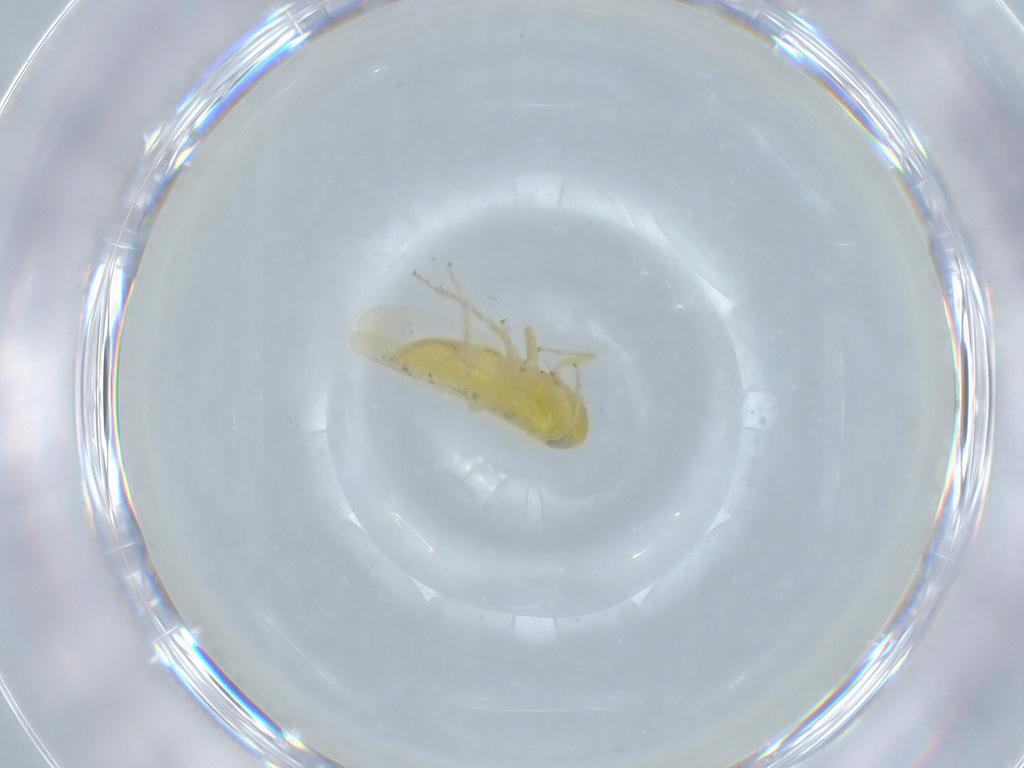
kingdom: Animalia
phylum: Arthropoda
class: Insecta
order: Hemiptera
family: Cicadellidae
